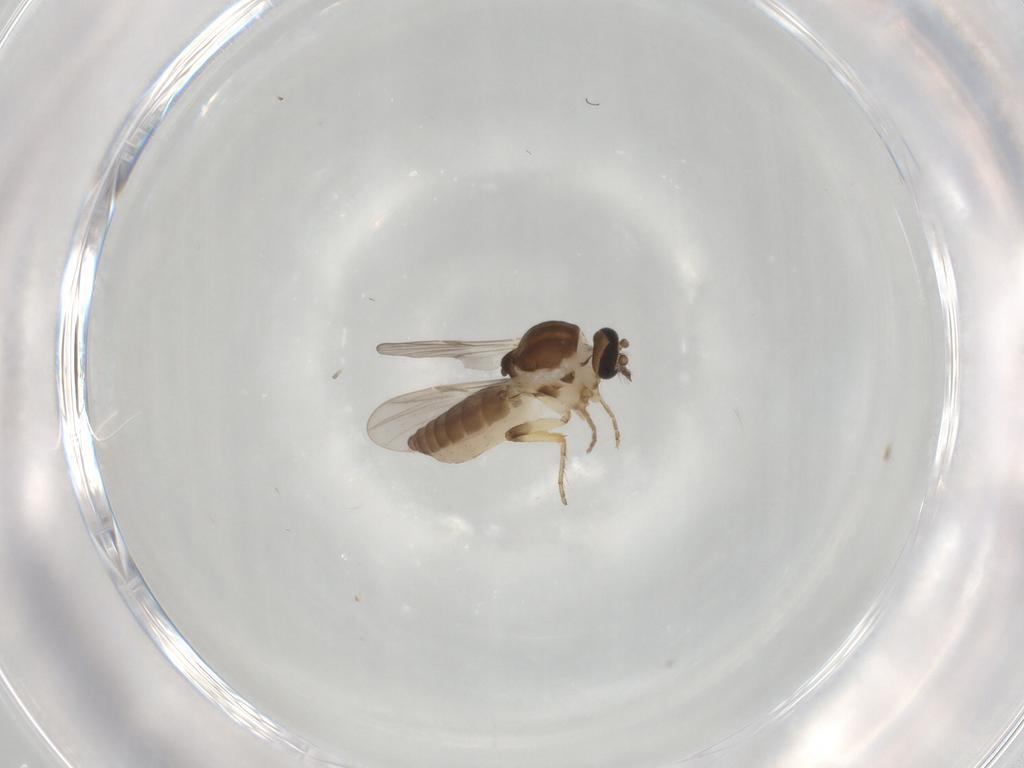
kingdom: Animalia
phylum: Arthropoda
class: Insecta
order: Diptera
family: Ceratopogonidae
